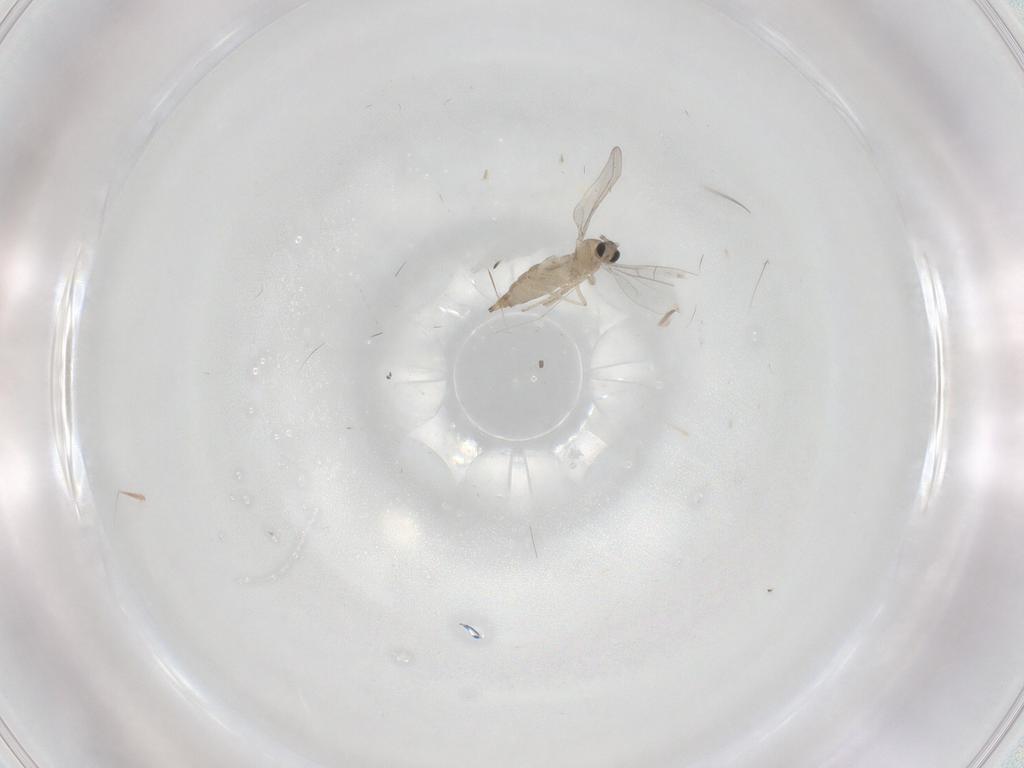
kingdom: Animalia
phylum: Arthropoda
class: Insecta
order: Diptera
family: Cecidomyiidae
